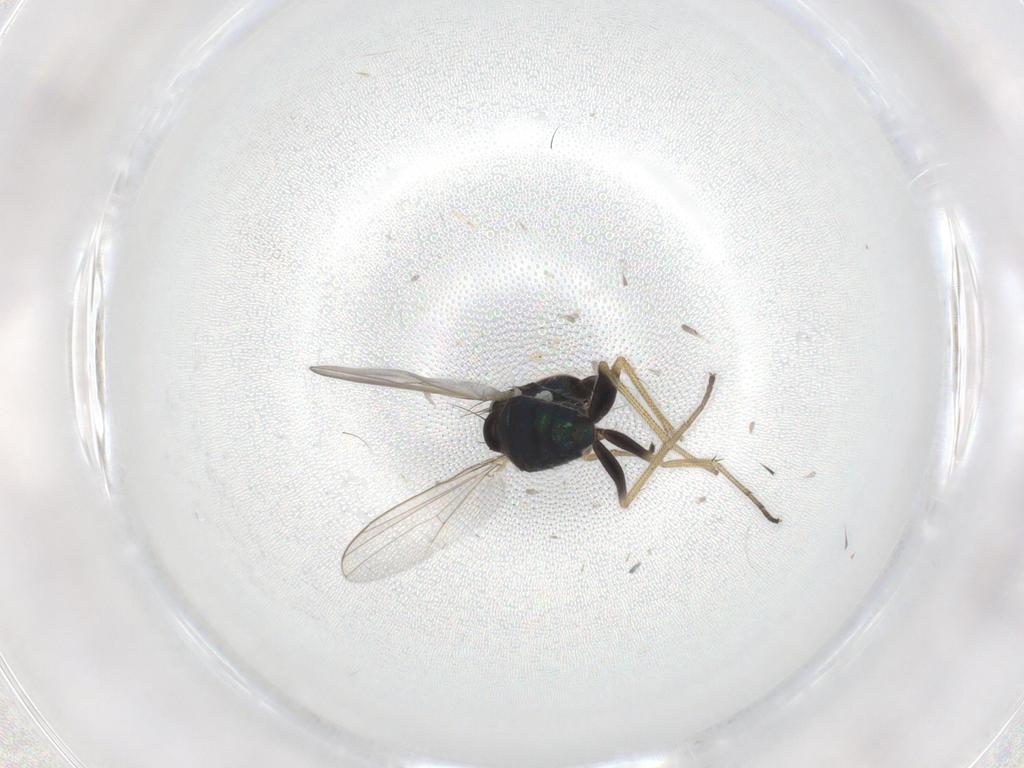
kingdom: Animalia
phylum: Arthropoda
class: Insecta
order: Diptera
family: Dolichopodidae
